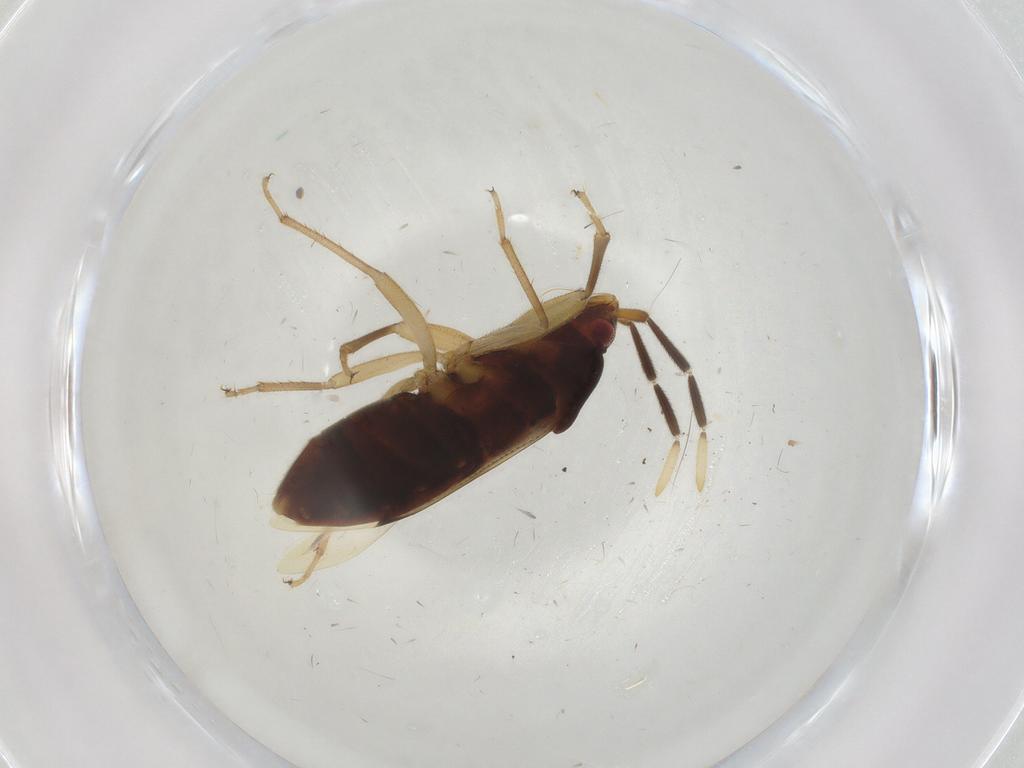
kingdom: Animalia
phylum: Arthropoda
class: Insecta
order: Hemiptera
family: Rhyparochromidae
